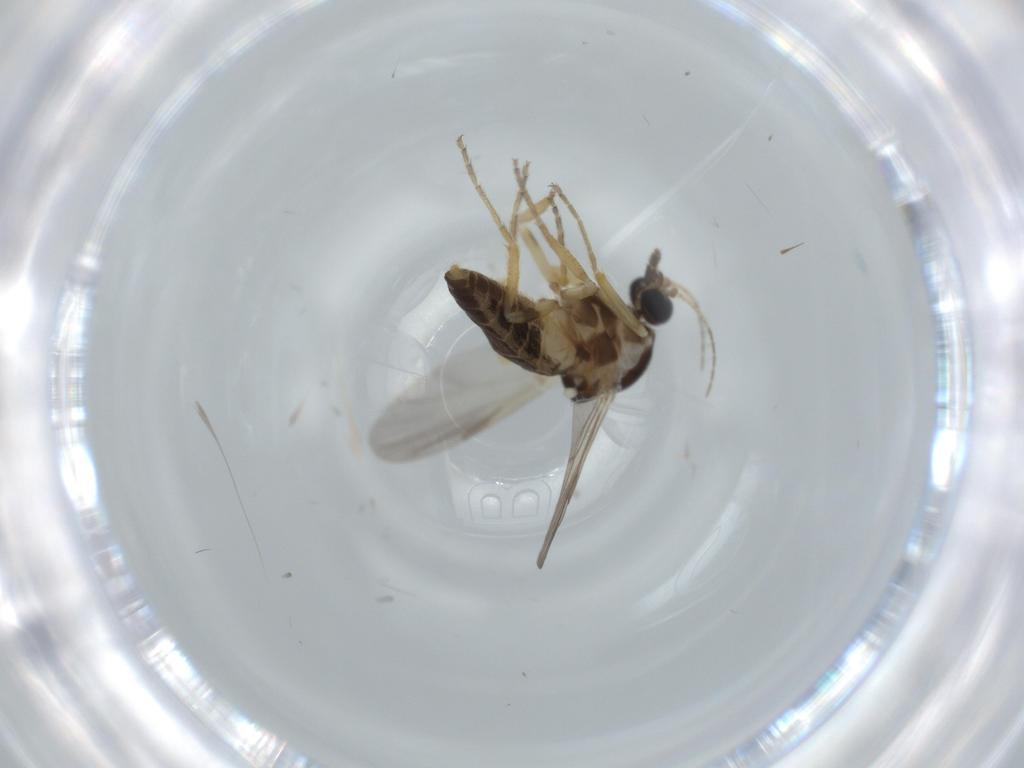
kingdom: Animalia
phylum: Arthropoda
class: Insecta
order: Diptera
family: Ceratopogonidae
